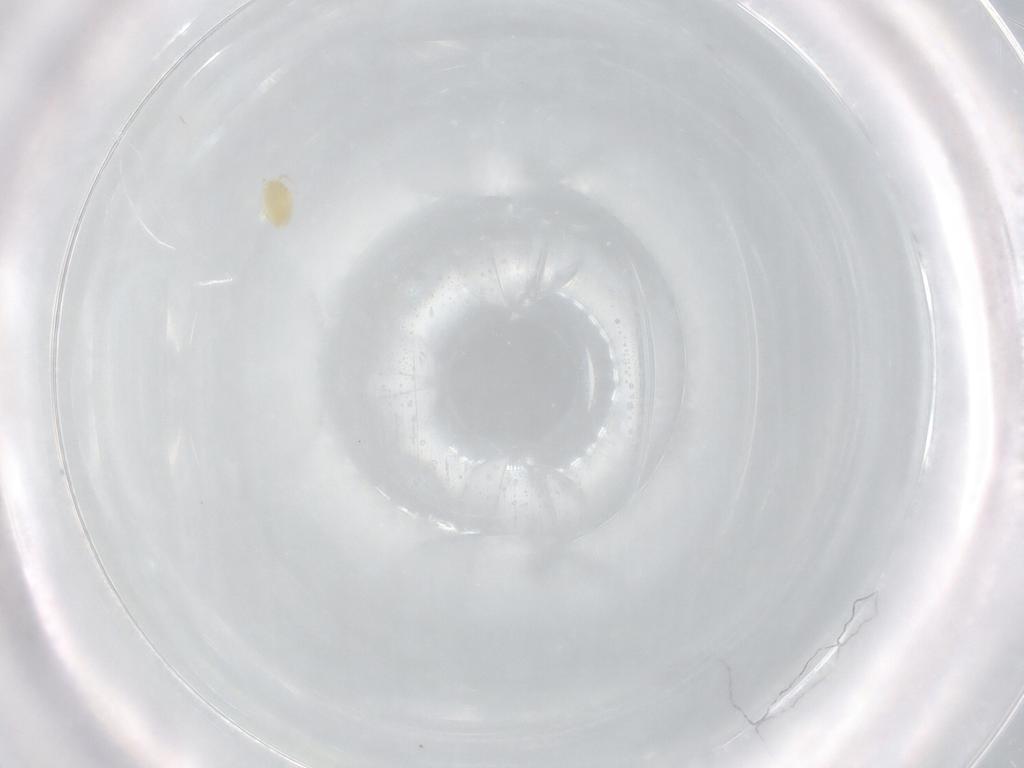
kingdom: Animalia
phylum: Arthropoda
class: Arachnida
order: Trombidiformes
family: Eupodidae
